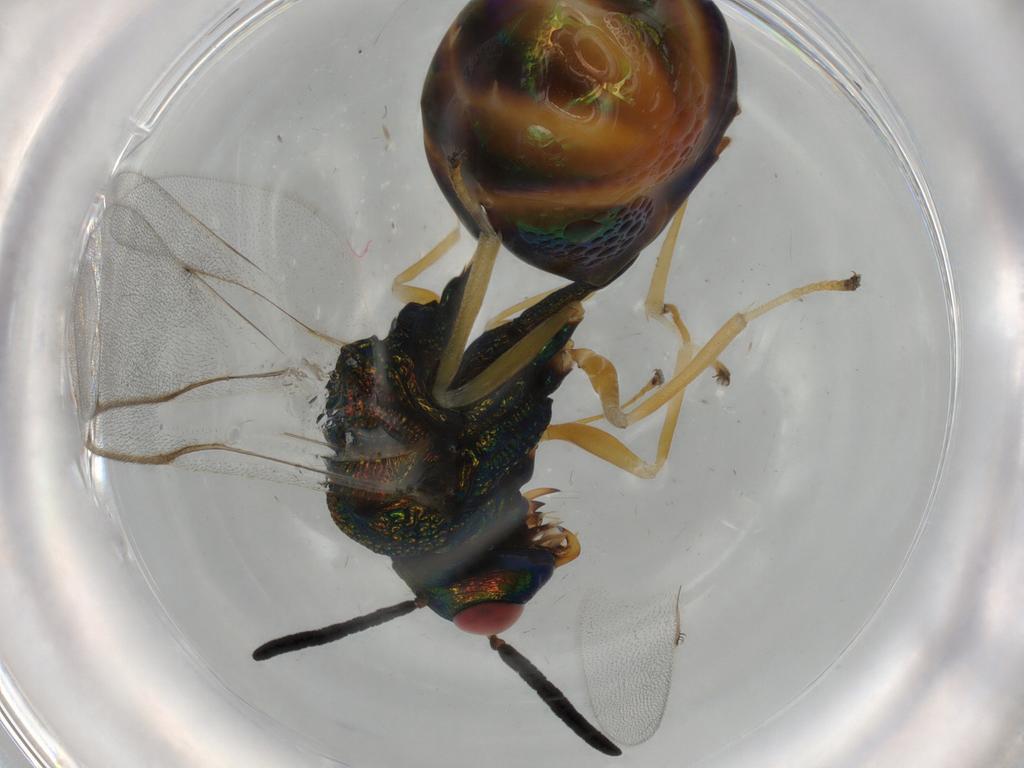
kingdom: Animalia
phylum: Arthropoda
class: Insecta
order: Hymenoptera
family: Eucharitidae
